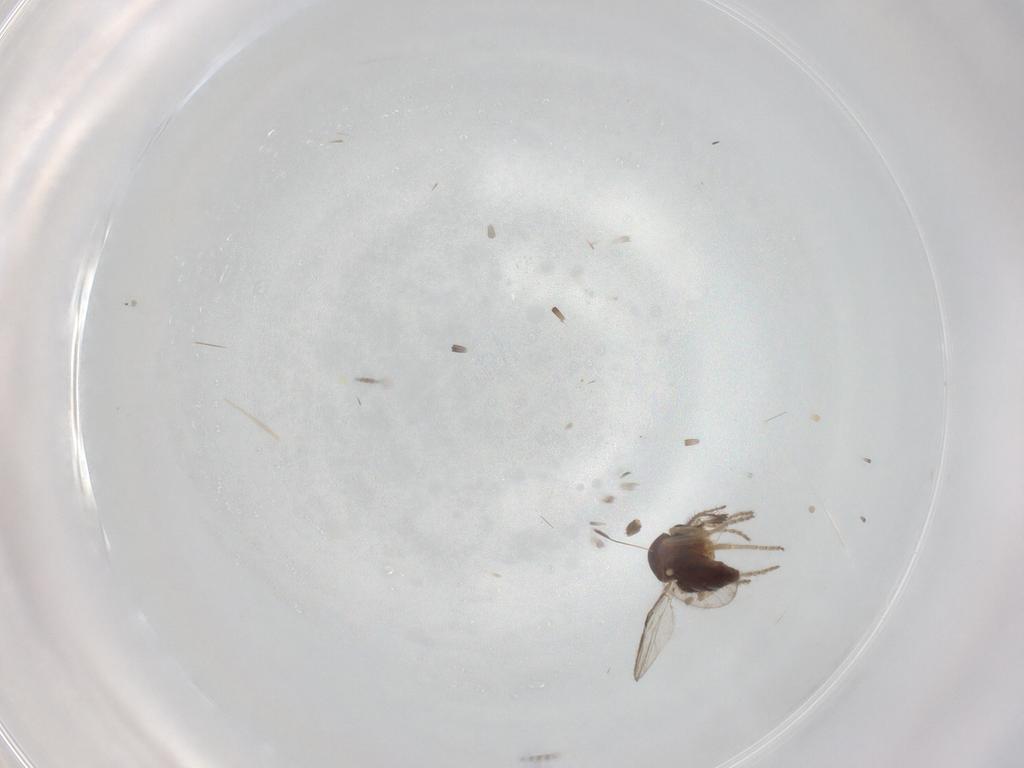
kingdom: Animalia
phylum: Arthropoda
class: Insecta
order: Diptera
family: Ceratopogonidae
